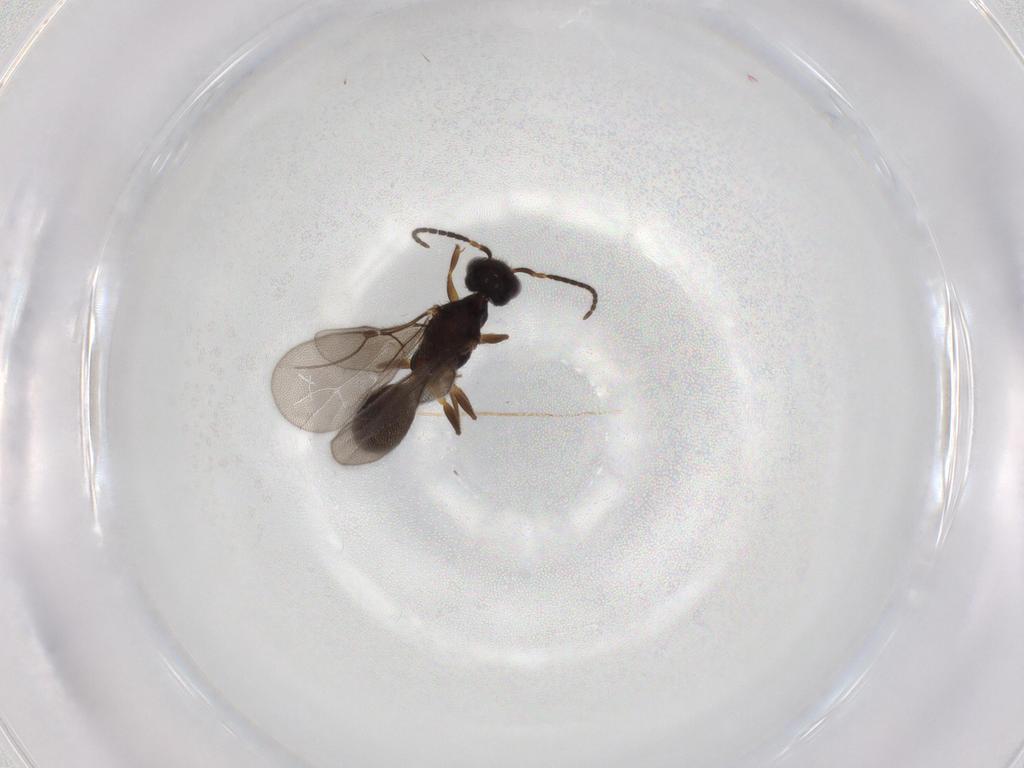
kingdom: Animalia
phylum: Arthropoda
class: Insecta
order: Hymenoptera
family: Bethylidae
